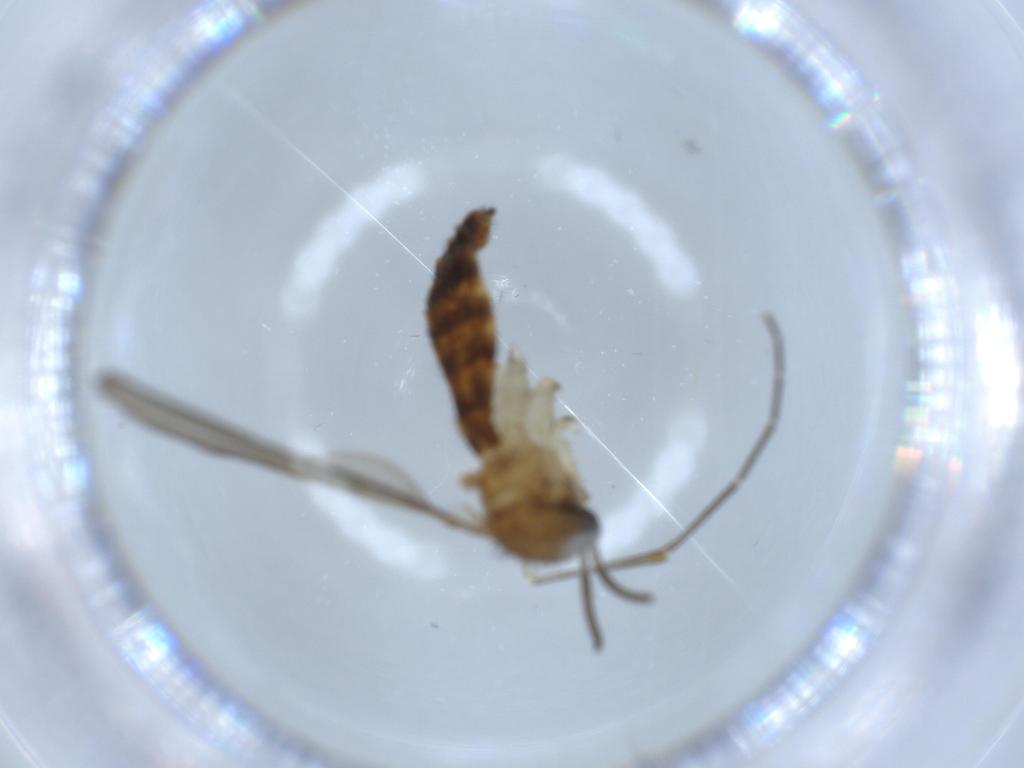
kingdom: Animalia
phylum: Arthropoda
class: Insecta
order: Diptera
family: Keroplatidae
